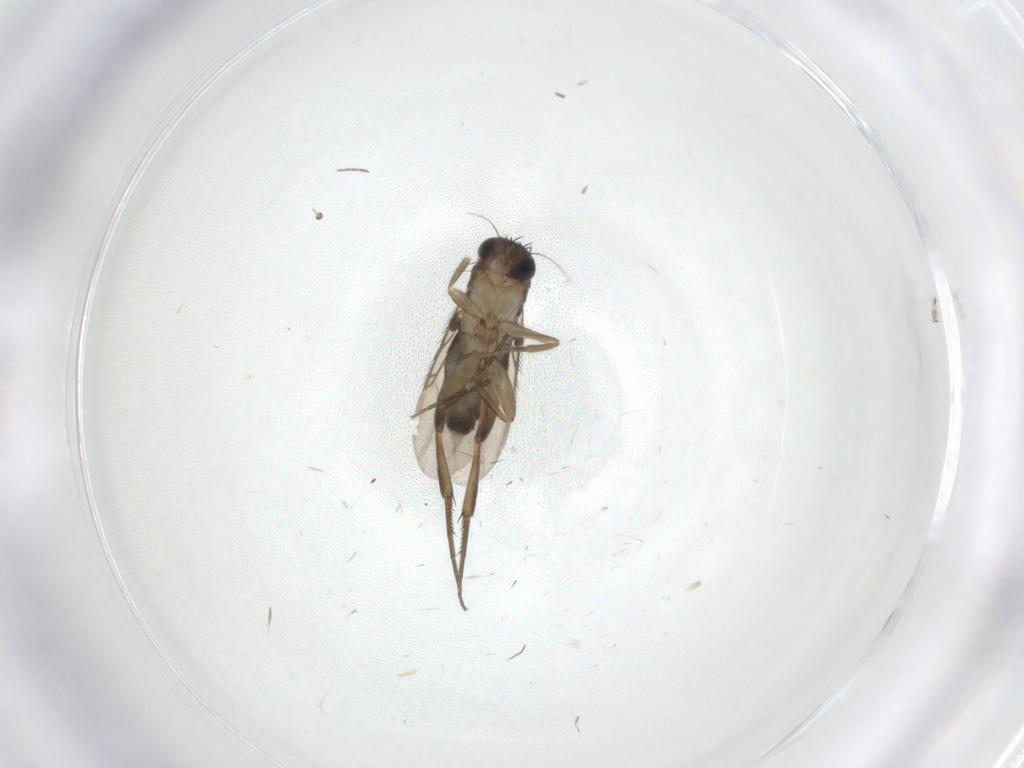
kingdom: Animalia
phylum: Arthropoda
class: Insecta
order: Diptera
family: Phoridae
